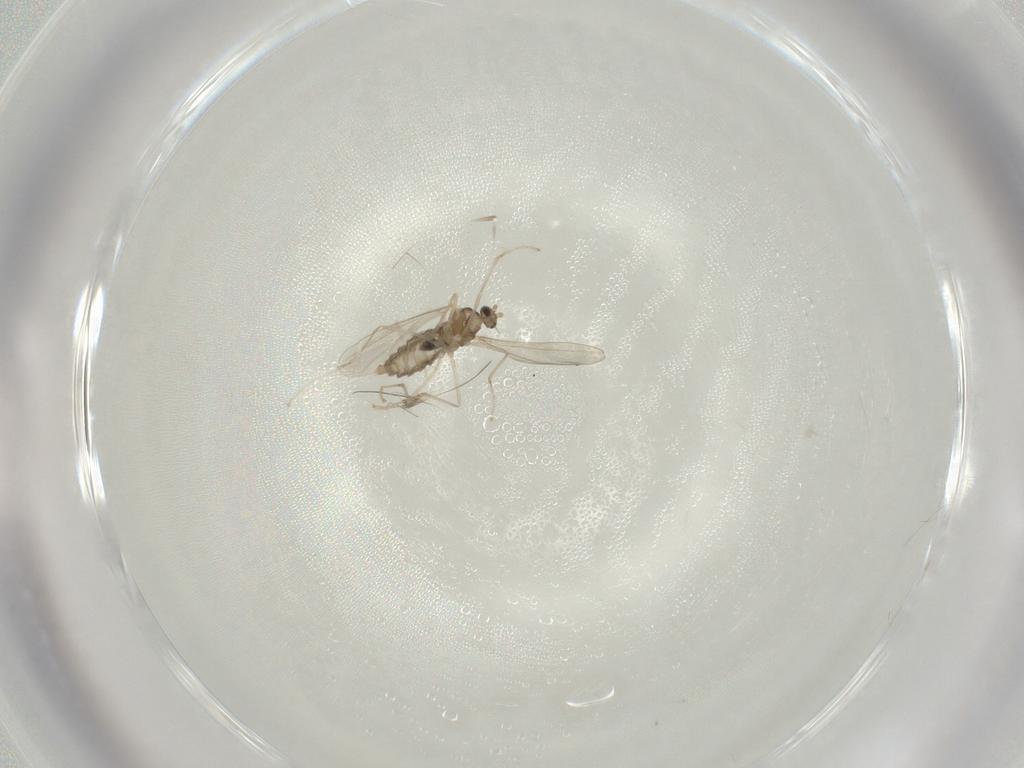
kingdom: Animalia
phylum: Arthropoda
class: Insecta
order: Diptera
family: Cecidomyiidae
